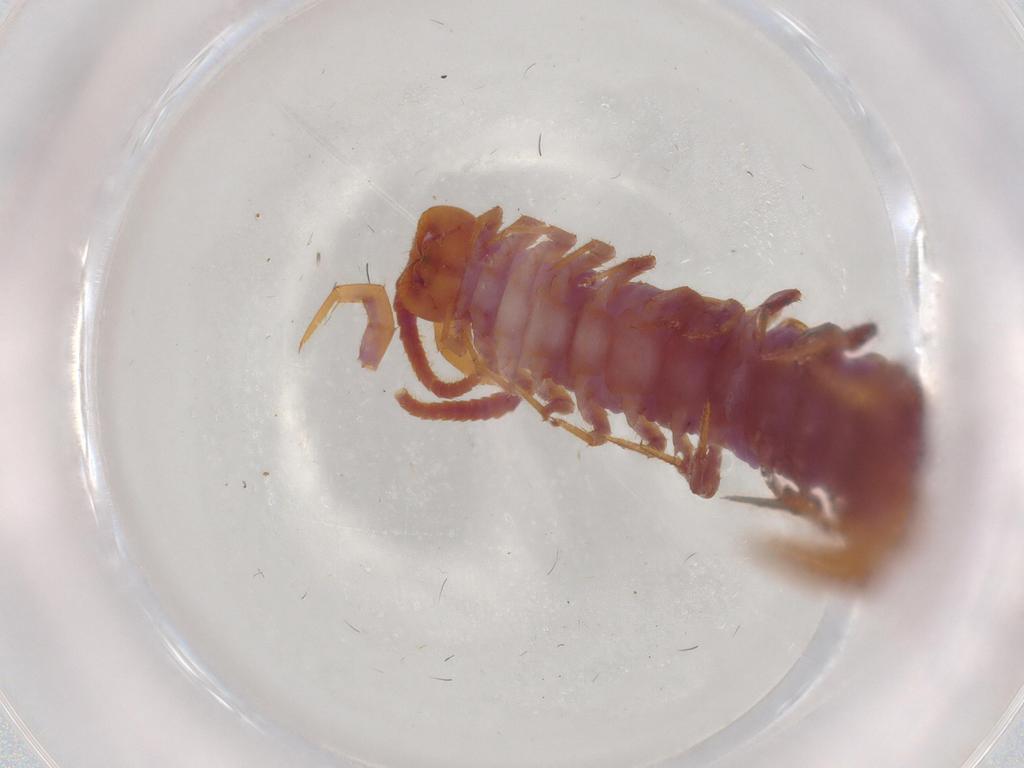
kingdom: Animalia
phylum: Arthropoda
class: Chilopoda
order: Lithobiomorpha
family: Lithobiidae
